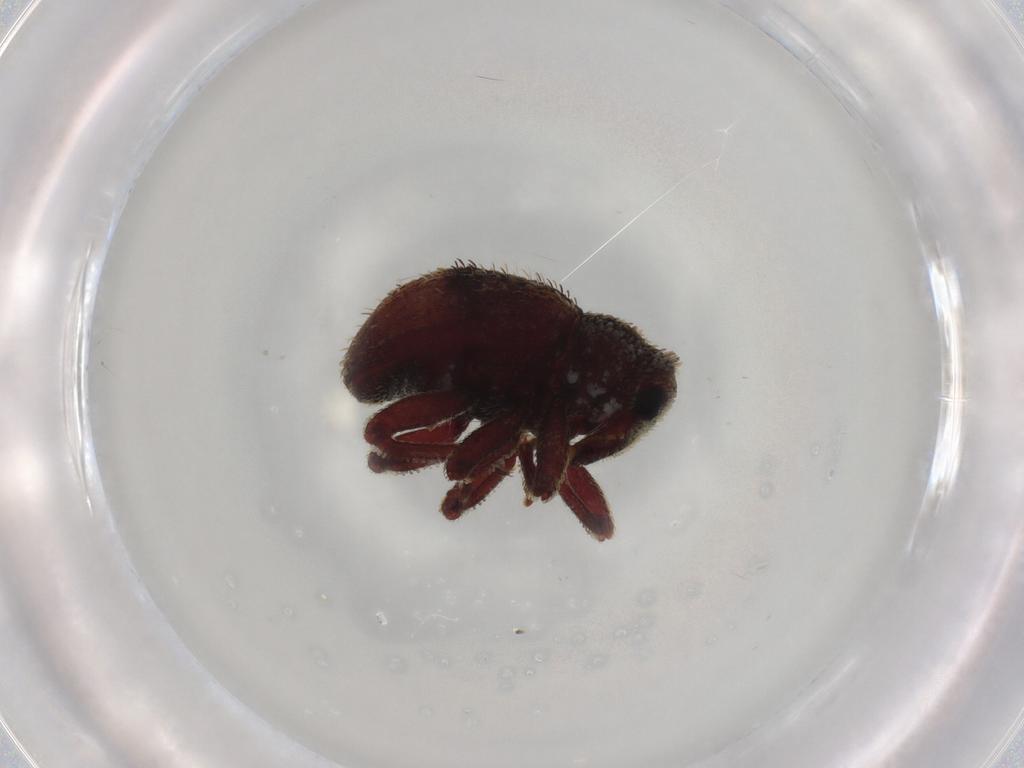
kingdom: Animalia
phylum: Arthropoda
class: Insecta
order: Coleoptera
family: Curculionidae
